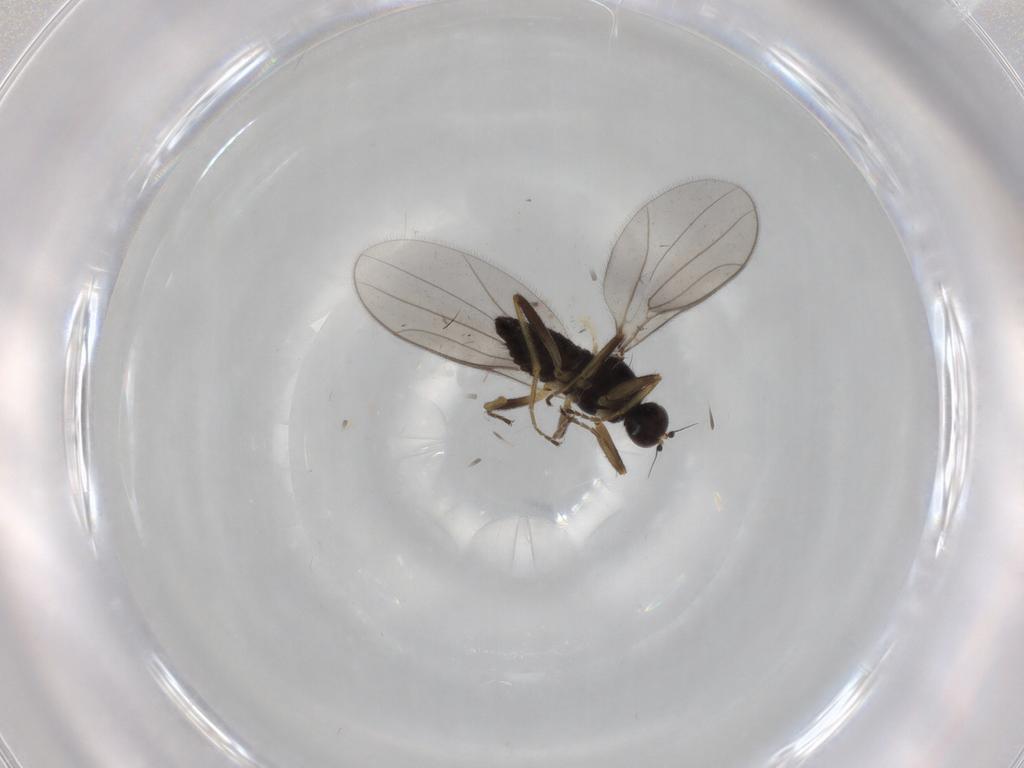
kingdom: Animalia
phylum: Arthropoda
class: Insecta
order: Diptera
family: Hybotidae
